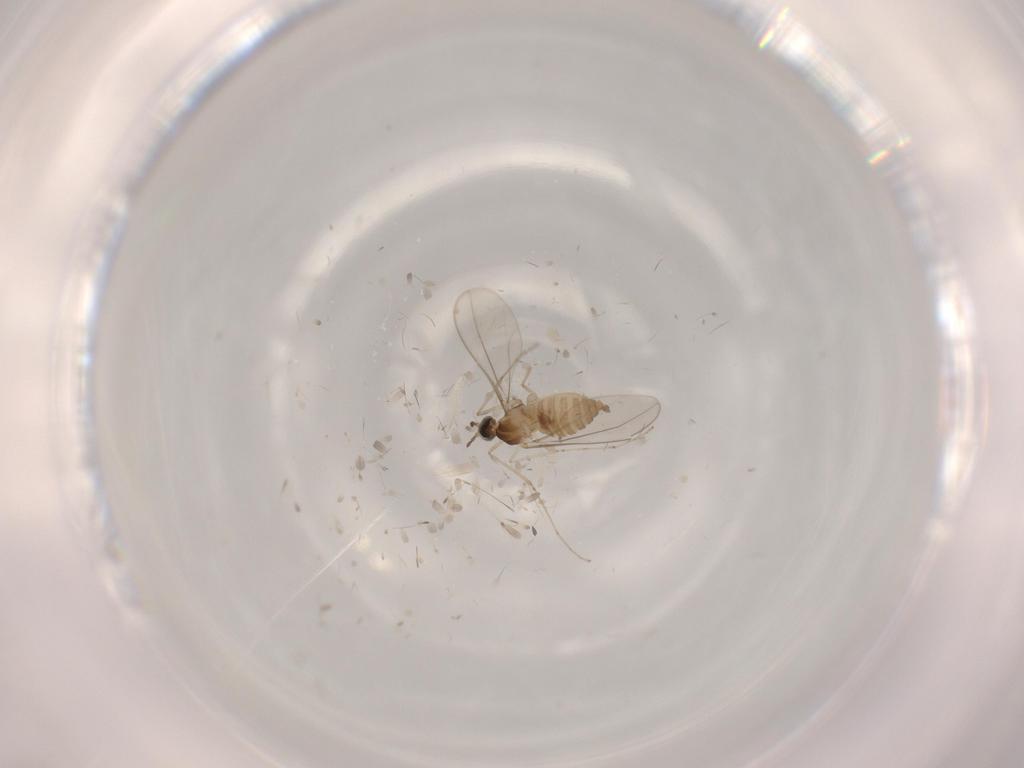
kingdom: Animalia
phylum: Arthropoda
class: Insecta
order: Diptera
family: Cecidomyiidae
